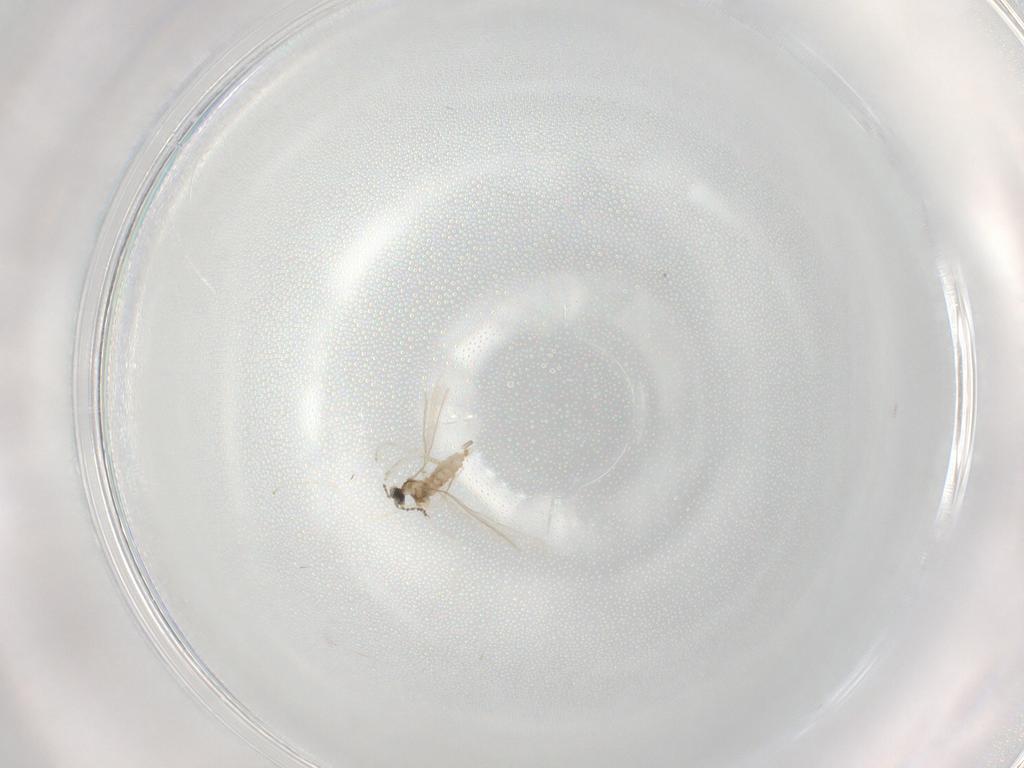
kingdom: Animalia
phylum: Arthropoda
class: Insecta
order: Diptera
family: Cecidomyiidae
